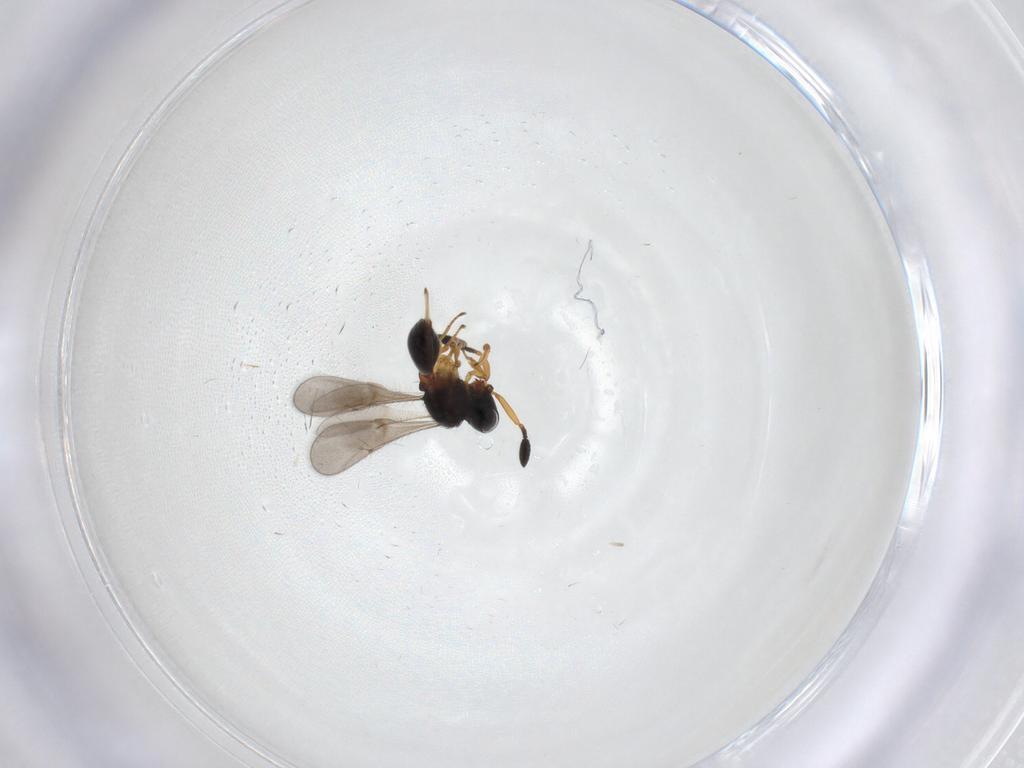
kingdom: Animalia
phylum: Arthropoda
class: Insecta
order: Hymenoptera
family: Scelionidae
